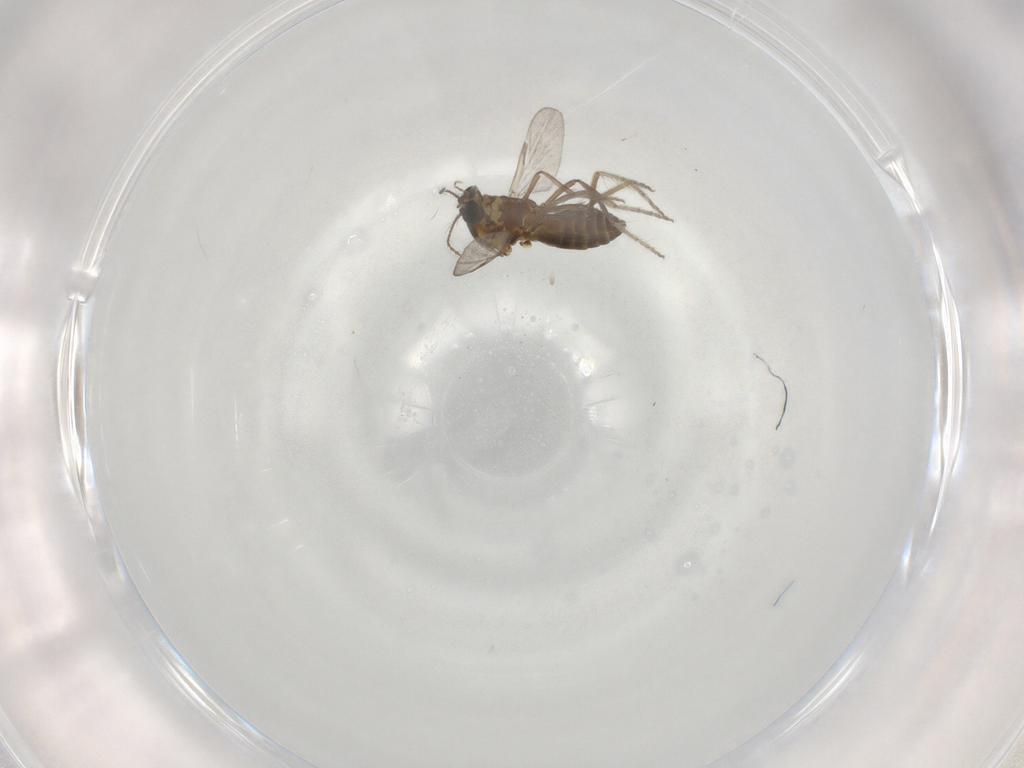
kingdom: Animalia
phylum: Arthropoda
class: Insecta
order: Diptera
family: Ceratopogonidae
